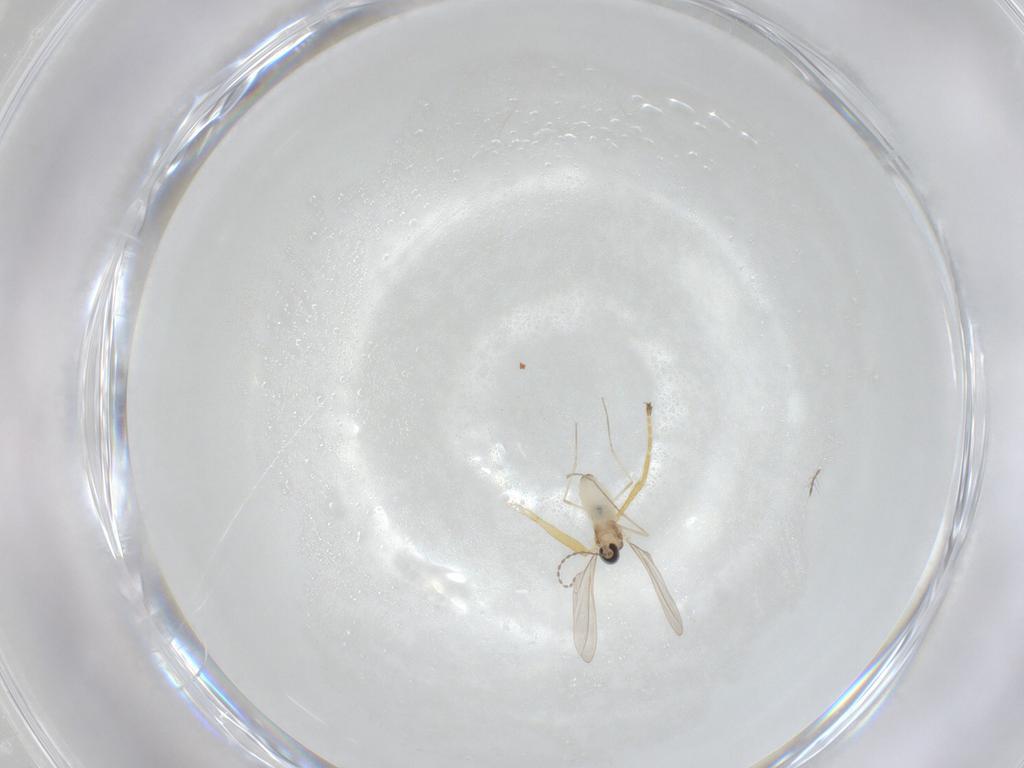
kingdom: Animalia
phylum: Arthropoda
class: Insecta
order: Diptera
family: Cecidomyiidae
